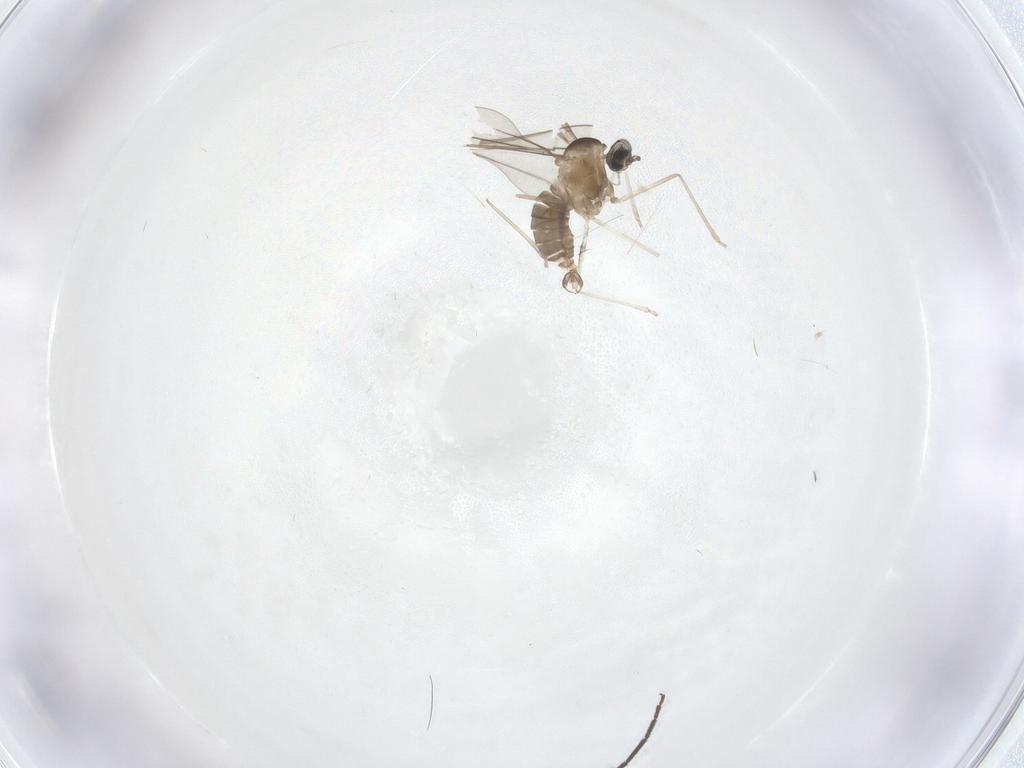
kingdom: Animalia
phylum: Arthropoda
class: Insecta
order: Diptera
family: Cecidomyiidae
